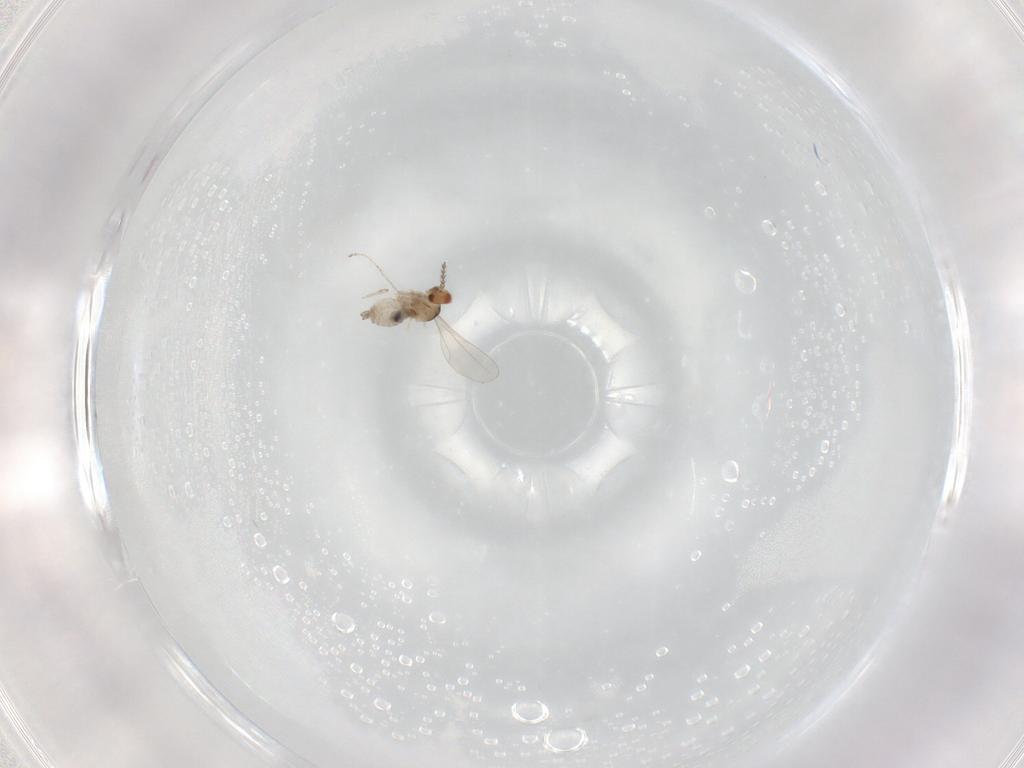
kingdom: Animalia
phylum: Arthropoda
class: Insecta
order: Diptera
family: Cecidomyiidae
